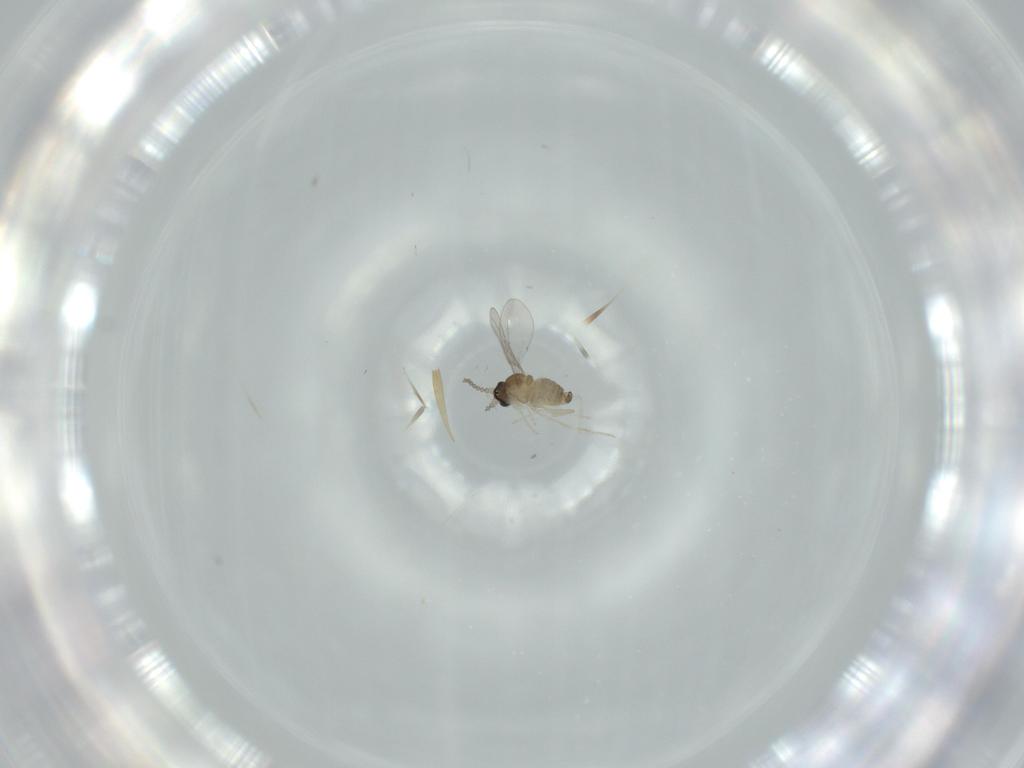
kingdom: Animalia
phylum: Arthropoda
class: Insecta
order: Diptera
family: Cecidomyiidae
